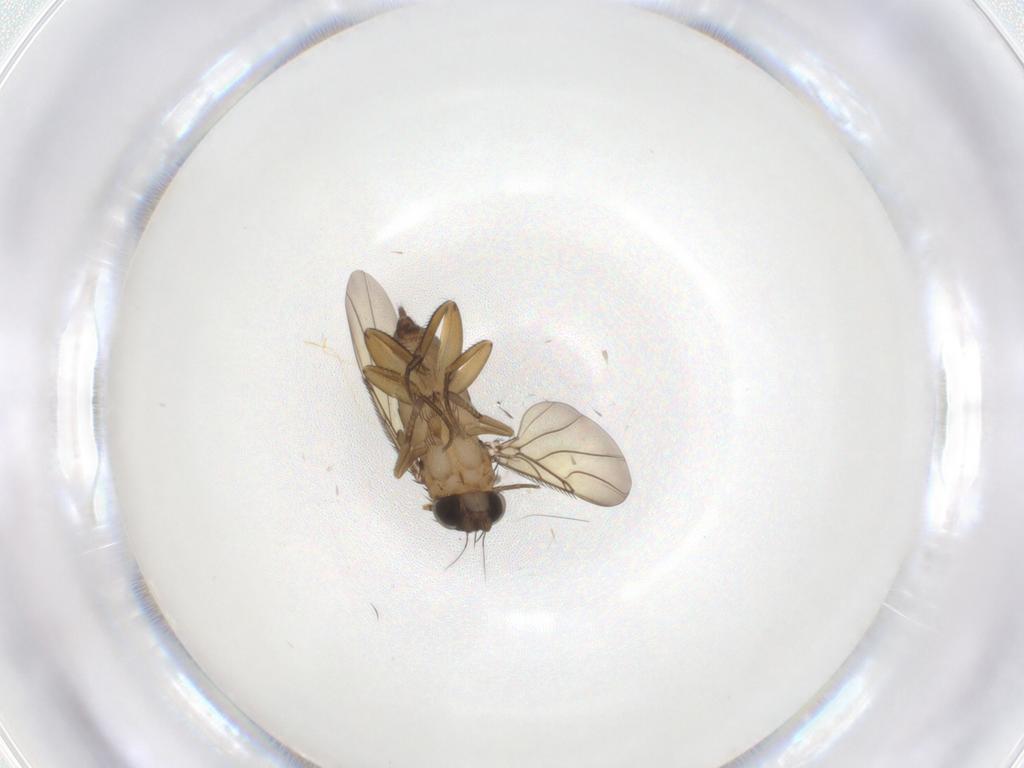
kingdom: Animalia
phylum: Arthropoda
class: Insecta
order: Diptera
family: Phoridae
